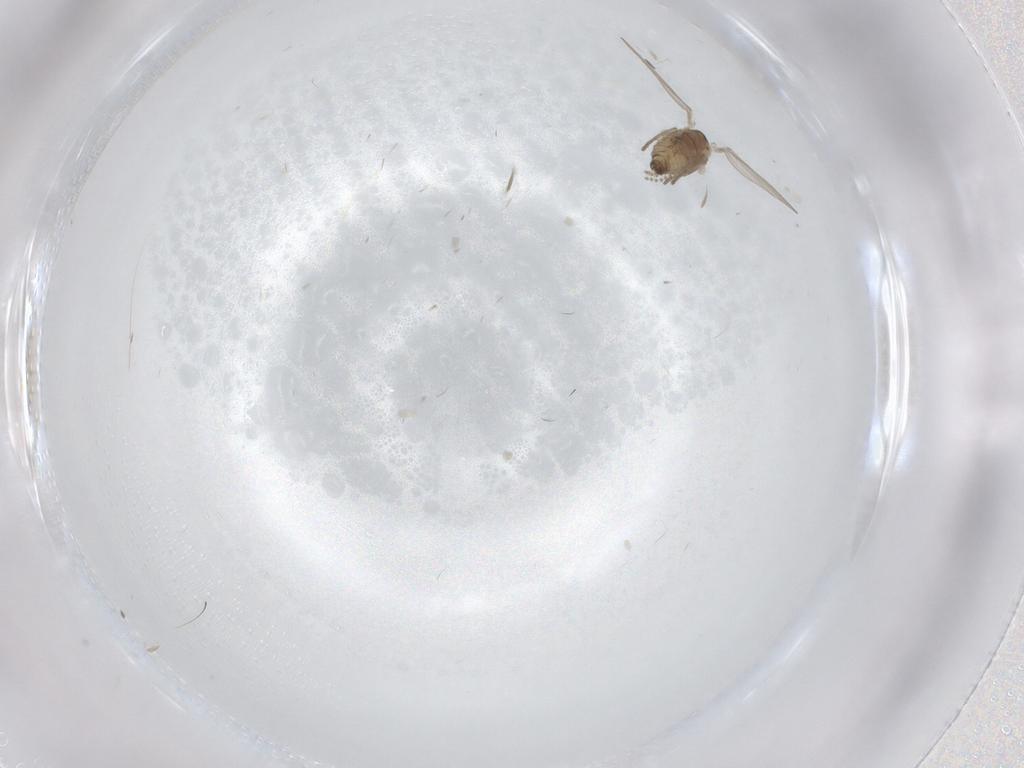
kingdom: Animalia
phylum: Arthropoda
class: Insecta
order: Diptera
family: Psychodidae
